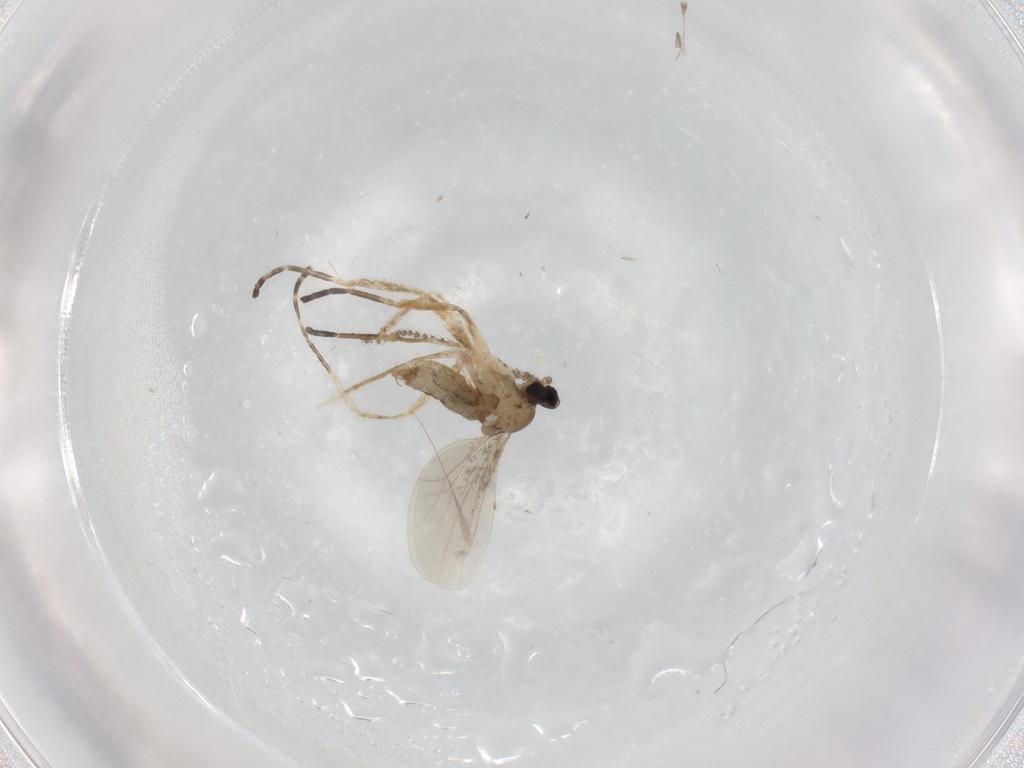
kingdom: Animalia
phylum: Arthropoda
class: Insecta
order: Diptera
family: Cecidomyiidae
